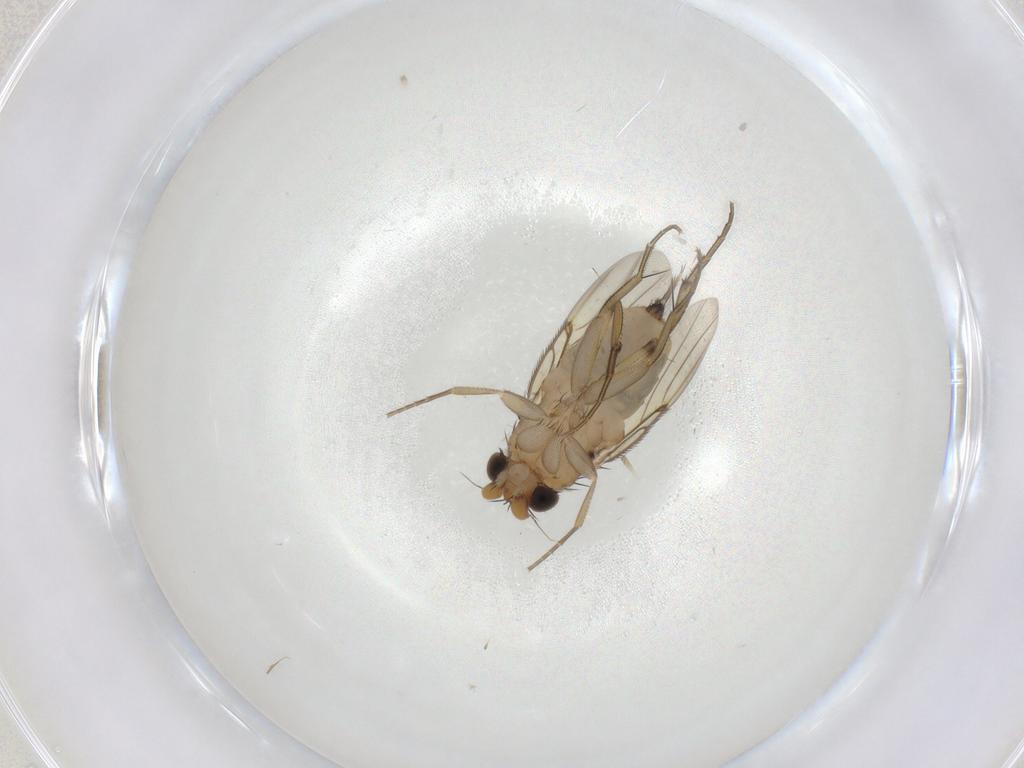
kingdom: Animalia
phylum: Arthropoda
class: Insecta
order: Diptera
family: Phoridae
